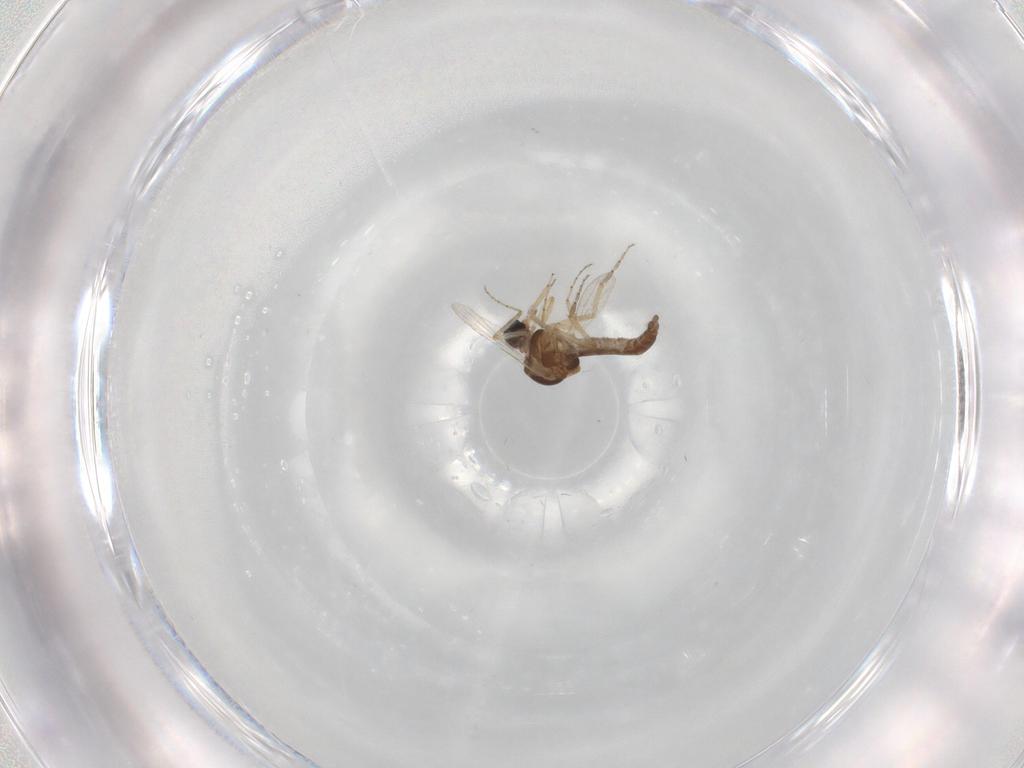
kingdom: Animalia
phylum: Arthropoda
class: Insecta
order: Diptera
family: Ceratopogonidae
